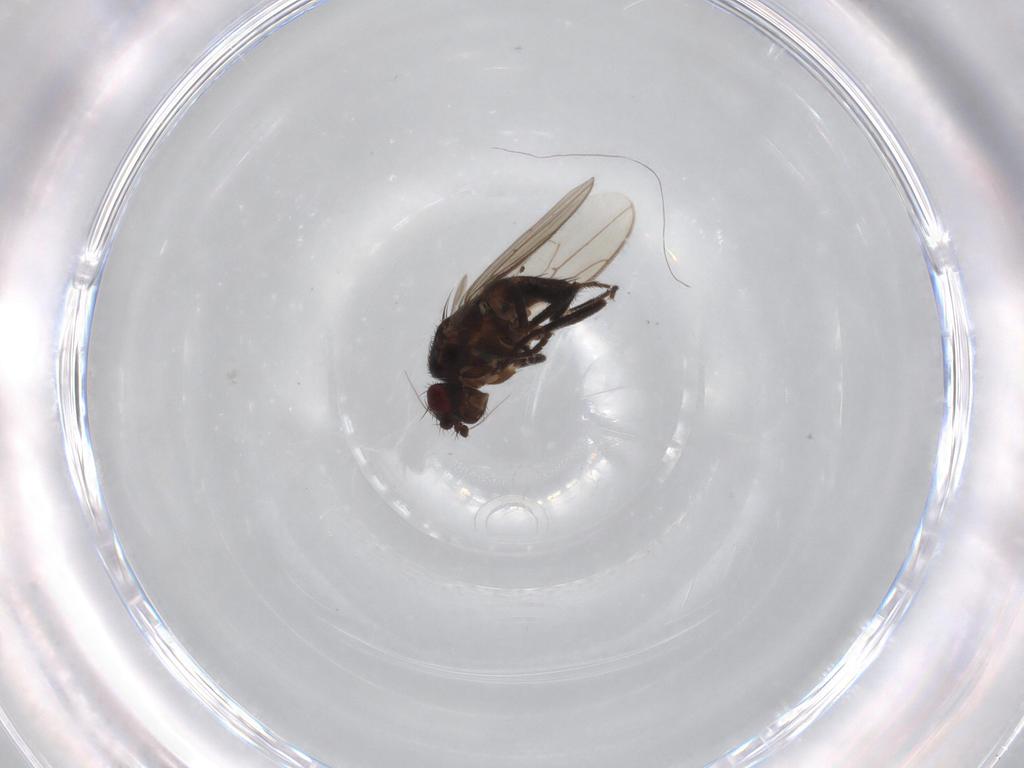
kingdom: Animalia
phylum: Arthropoda
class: Insecta
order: Diptera
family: Sphaeroceridae
